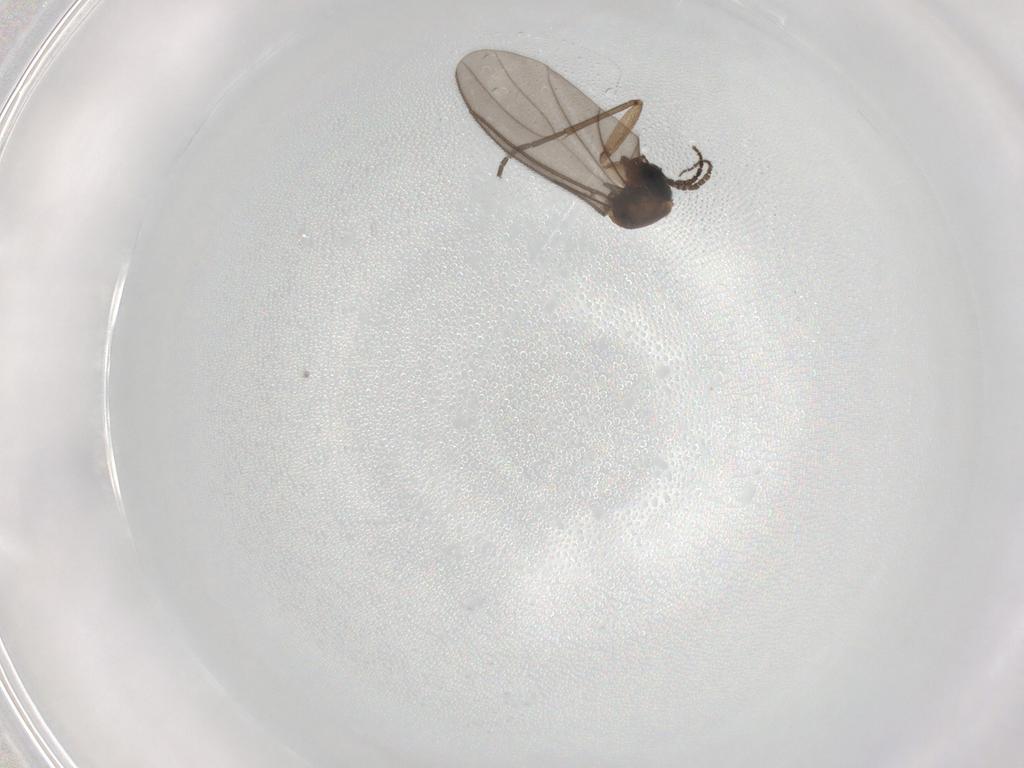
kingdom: Animalia
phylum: Arthropoda
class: Insecta
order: Diptera
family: Sciaridae
